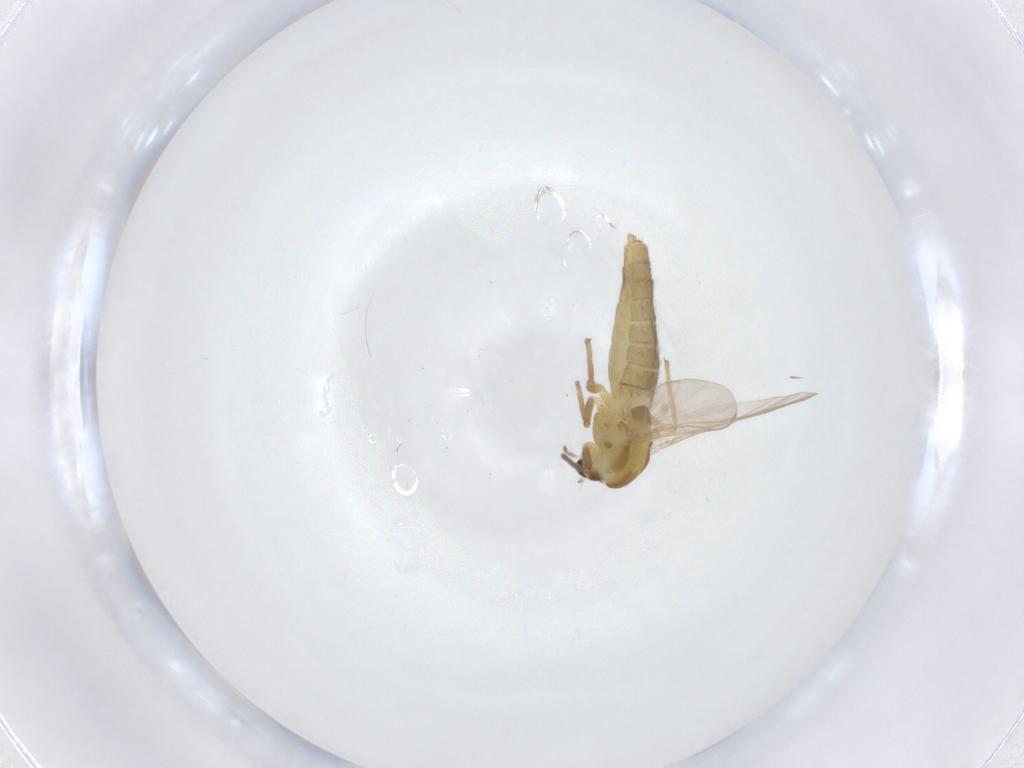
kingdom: Animalia
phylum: Arthropoda
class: Insecta
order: Diptera
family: Chironomidae
